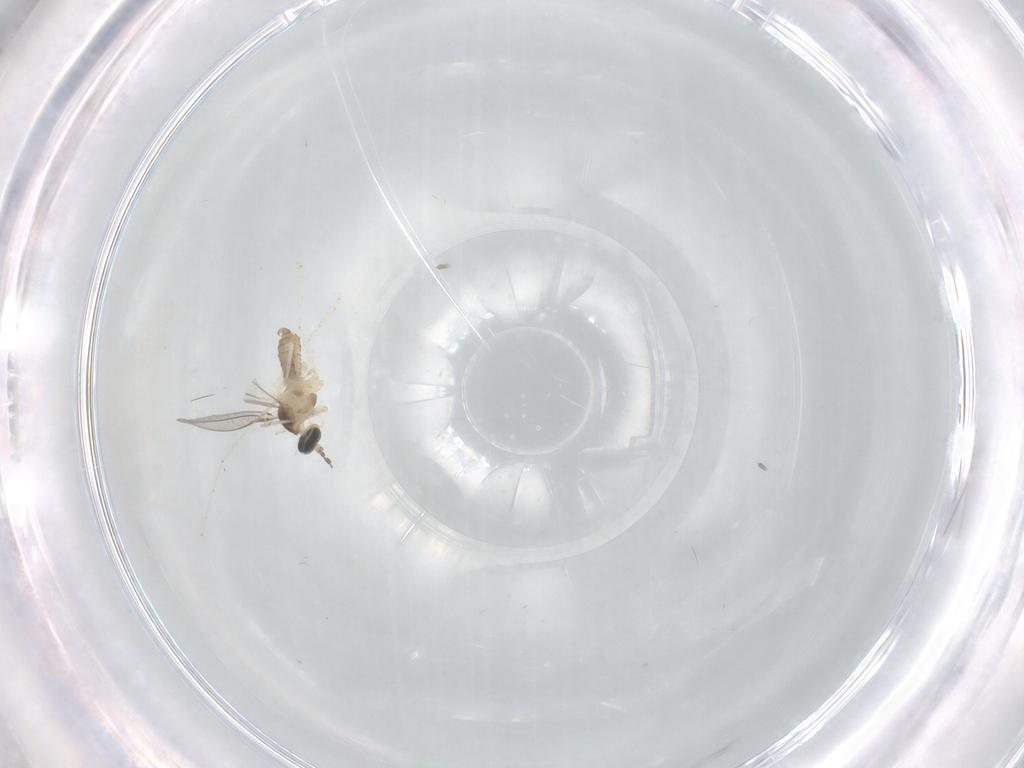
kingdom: Animalia
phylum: Arthropoda
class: Insecta
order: Diptera
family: Cecidomyiidae
